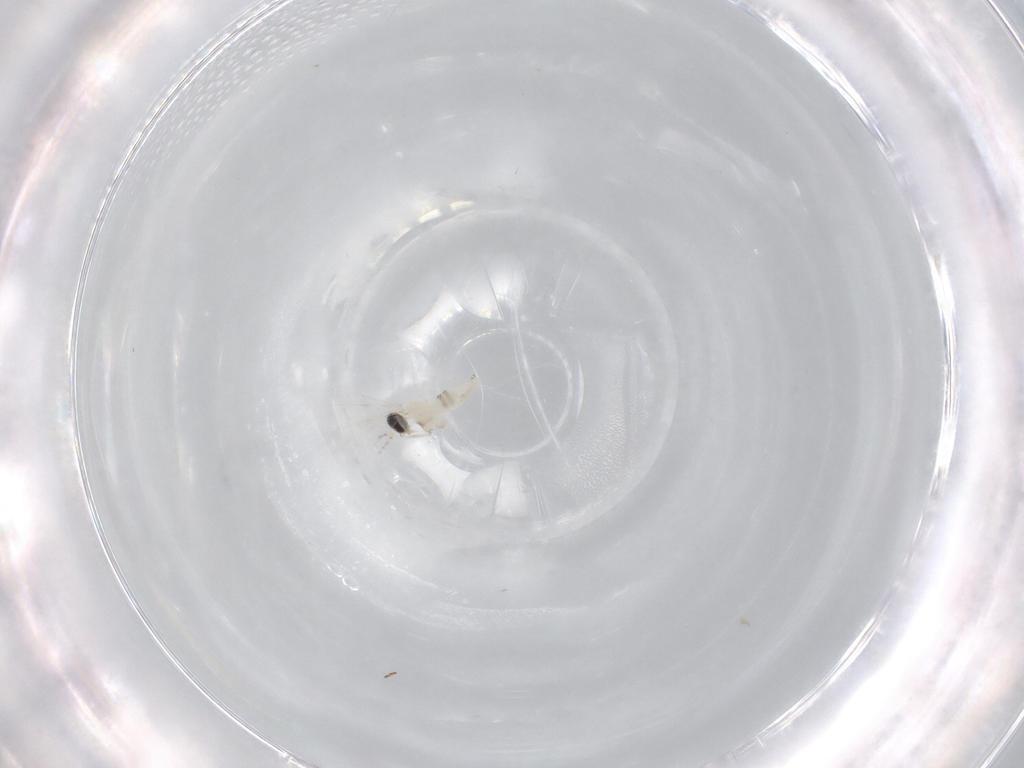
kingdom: Animalia
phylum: Arthropoda
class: Insecta
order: Diptera
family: Cecidomyiidae
